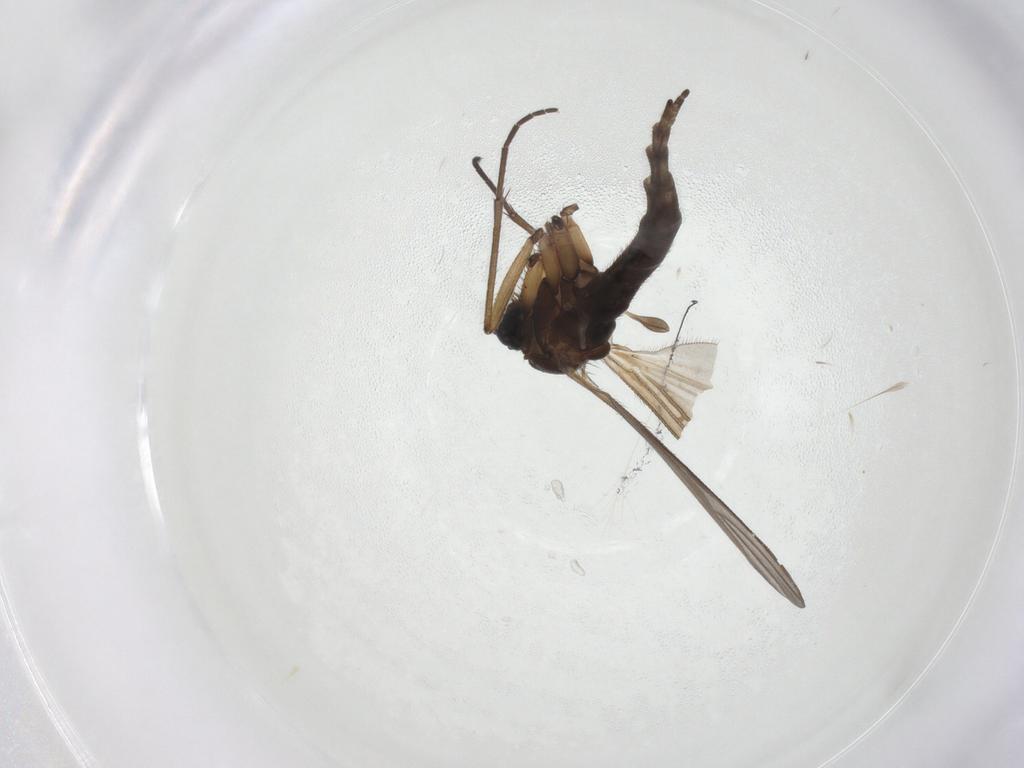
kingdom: Animalia
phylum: Arthropoda
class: Insecta
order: Diptera
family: Sciaridae
